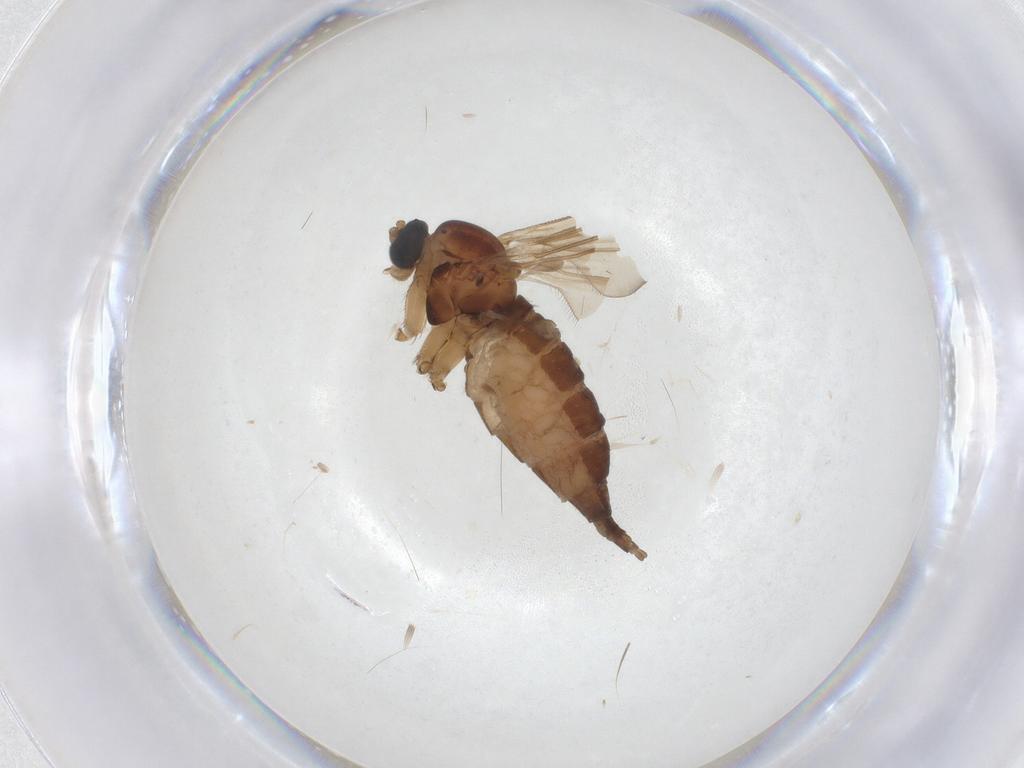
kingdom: Animalia
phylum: Arthropoda
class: Insecta
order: Diptera
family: Sciaridae
